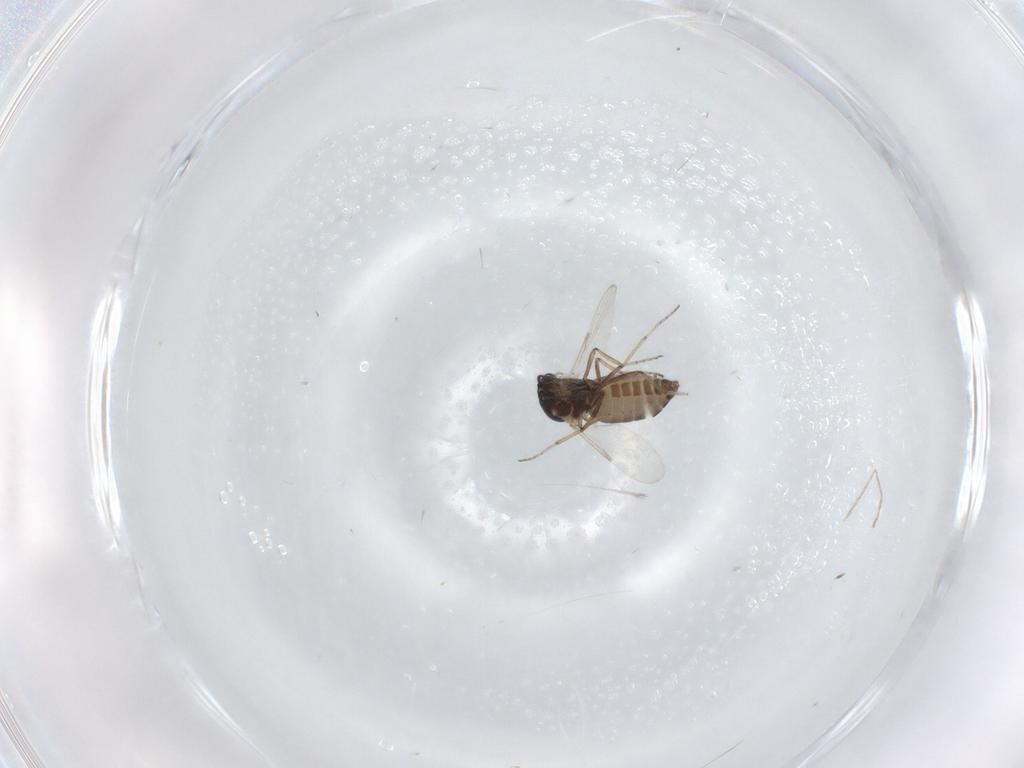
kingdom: Animalia
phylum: Arthropoda
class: Insecta
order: Diptera
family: Ceratopogonidae
